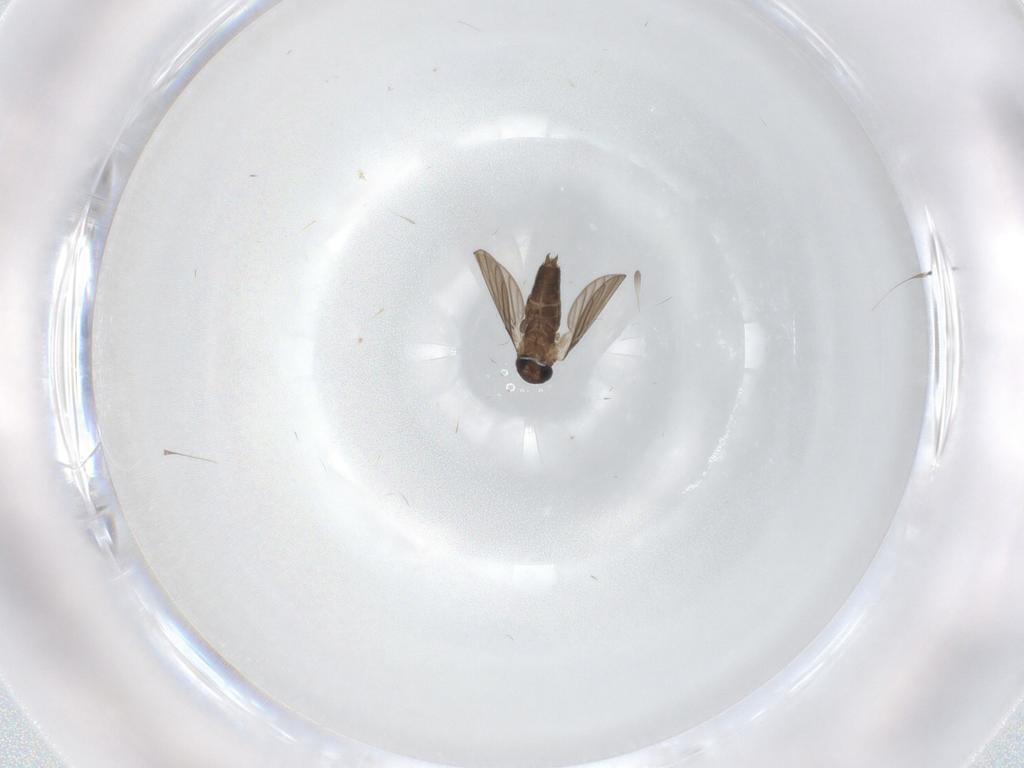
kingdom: Animalia
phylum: Arthropoda
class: Insecta
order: Diptera
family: Cecidomyiidae
